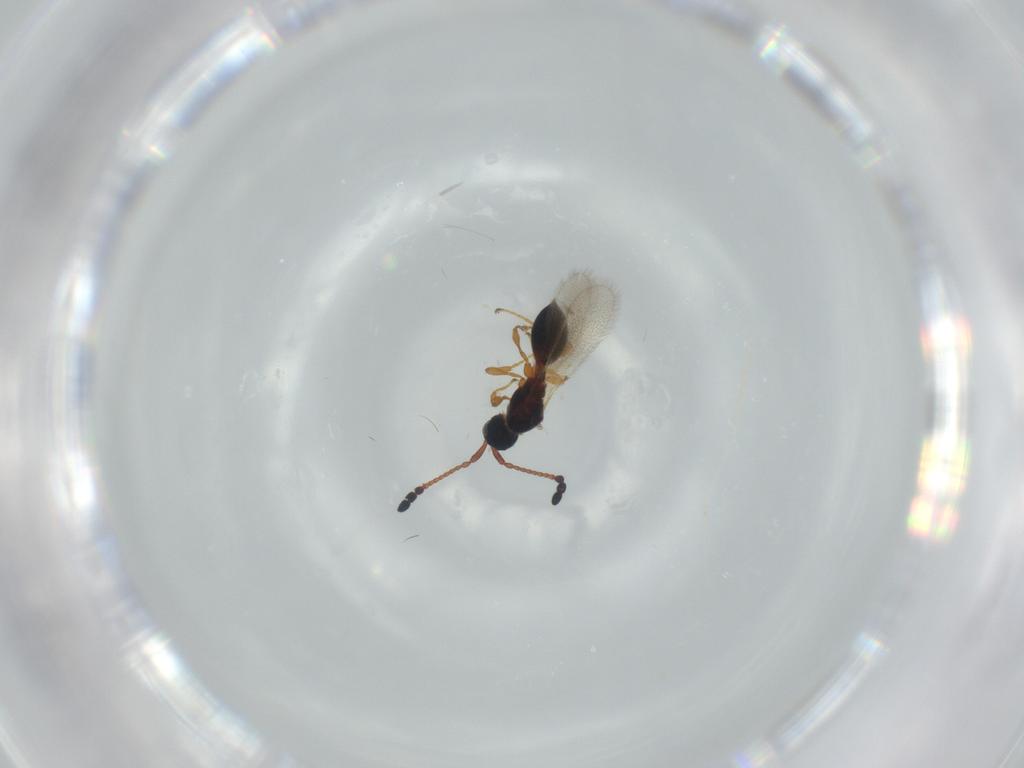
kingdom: Animalia
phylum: Arthropoda
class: Insecta
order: Hymenoptera
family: Diapriidae
